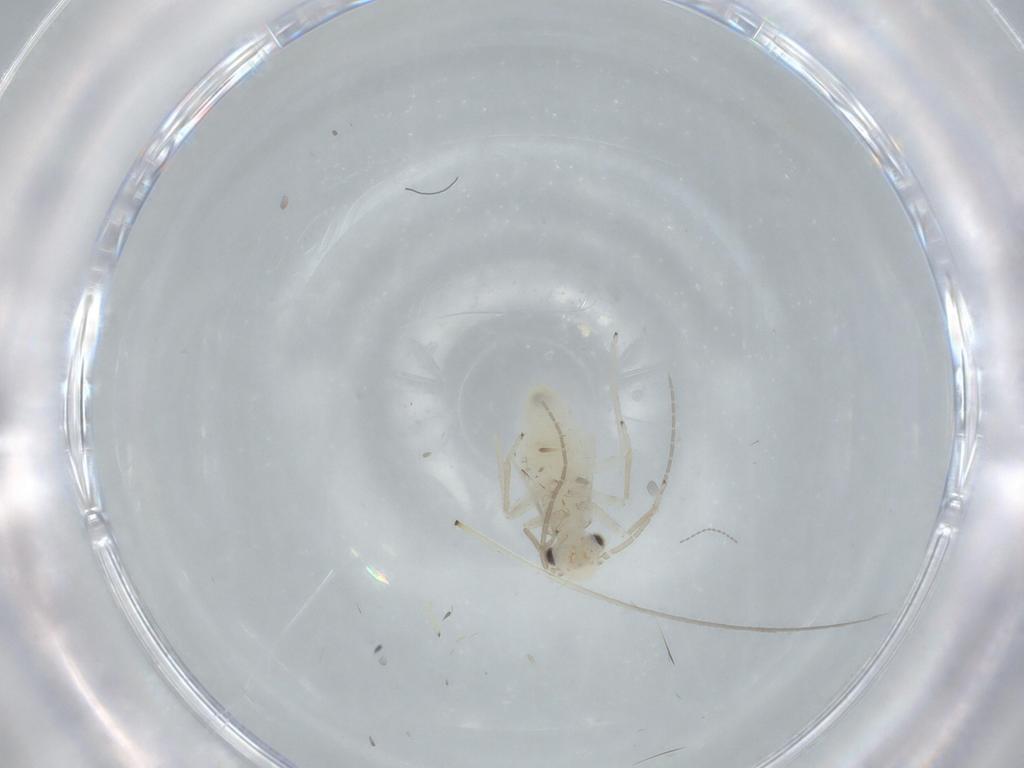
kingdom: Animalia
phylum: Arthropoda
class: Insecta
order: Psocodea
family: Caeciliusidae
